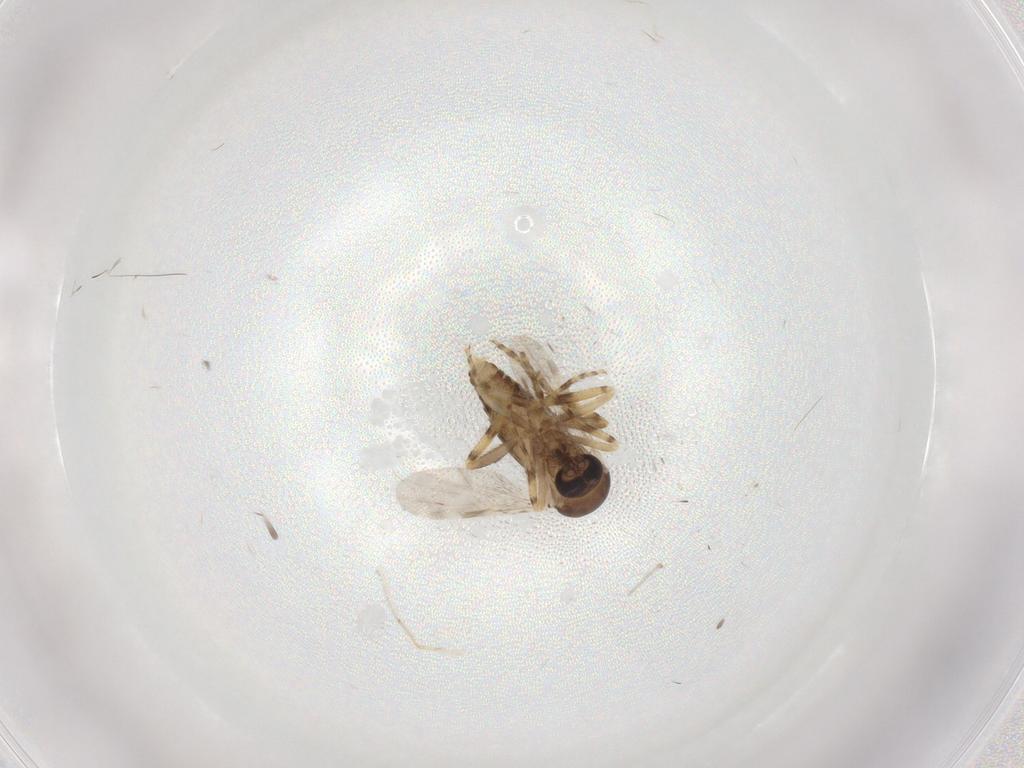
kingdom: Animalia
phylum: Arthropoda
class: Insecta
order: Diptera
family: Ceratopogonidae
